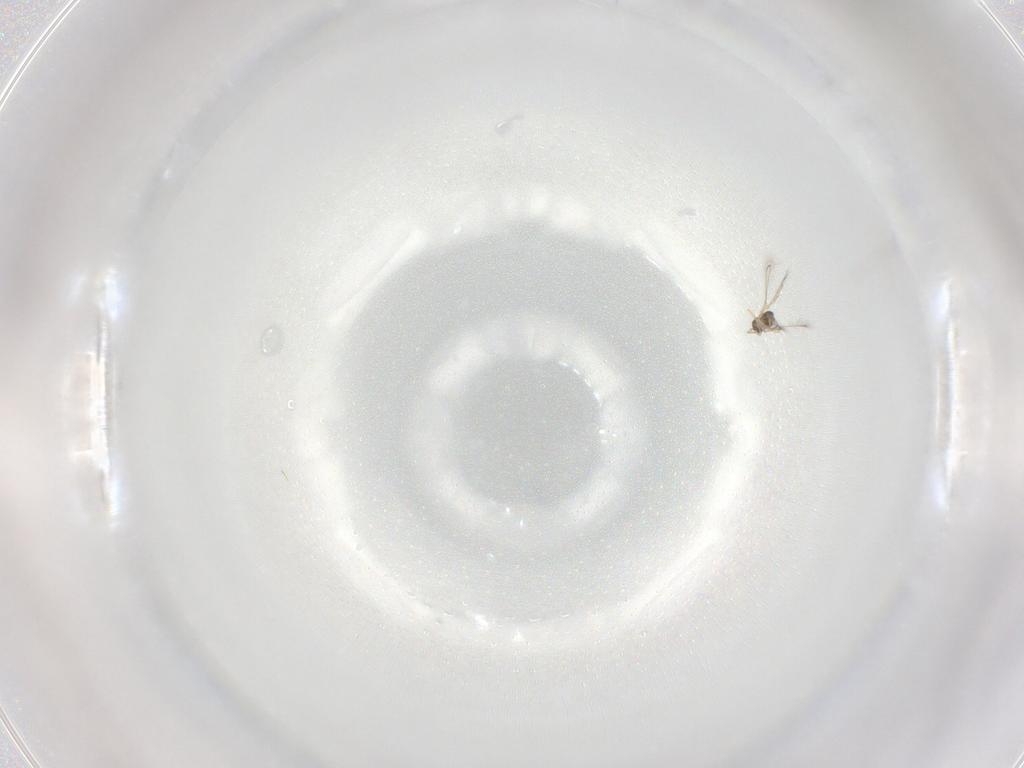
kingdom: Animalia
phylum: Arthropoda
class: Insecta
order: Hymenoptera
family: Mymaridae
